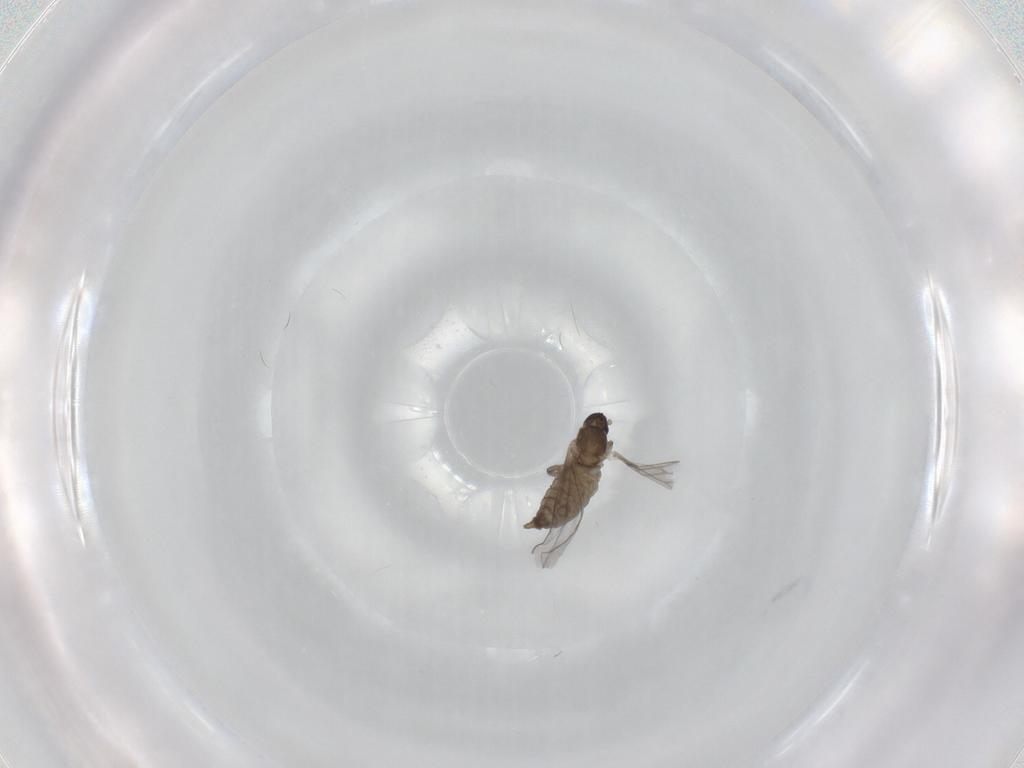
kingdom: Animalia
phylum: Arthropoda
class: Insecta
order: Diptera
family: Cecidomyiidae
